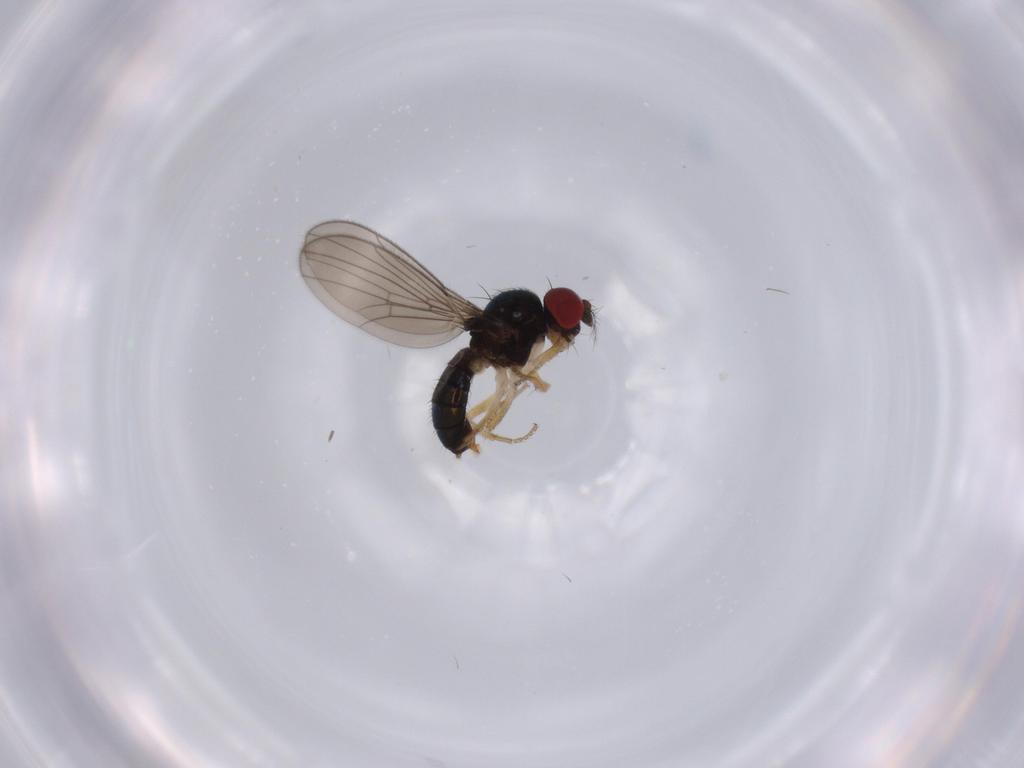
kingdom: Animalia
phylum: Arthropoda
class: Insecta
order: Diptera
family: Drosophilidae
